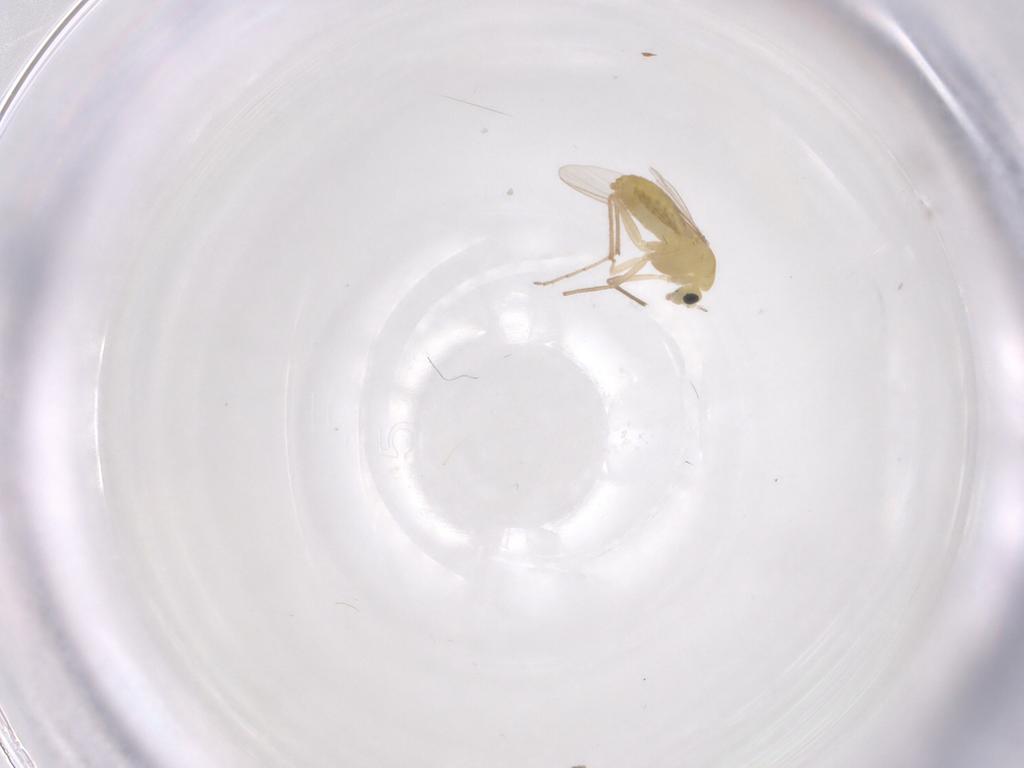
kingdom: Animalia
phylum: Arthropoda
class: Insecta
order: Diptera
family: Chironomidae
